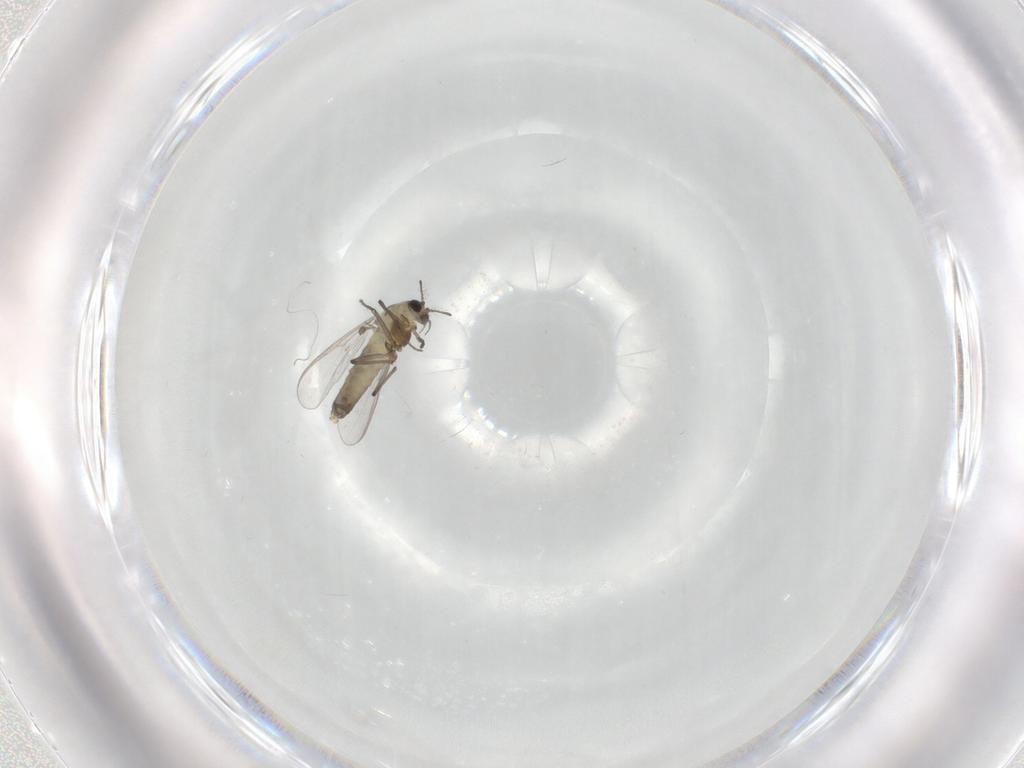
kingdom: Animalia
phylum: Arthropoda
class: Insecta
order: Diptera
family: Chironomidae
